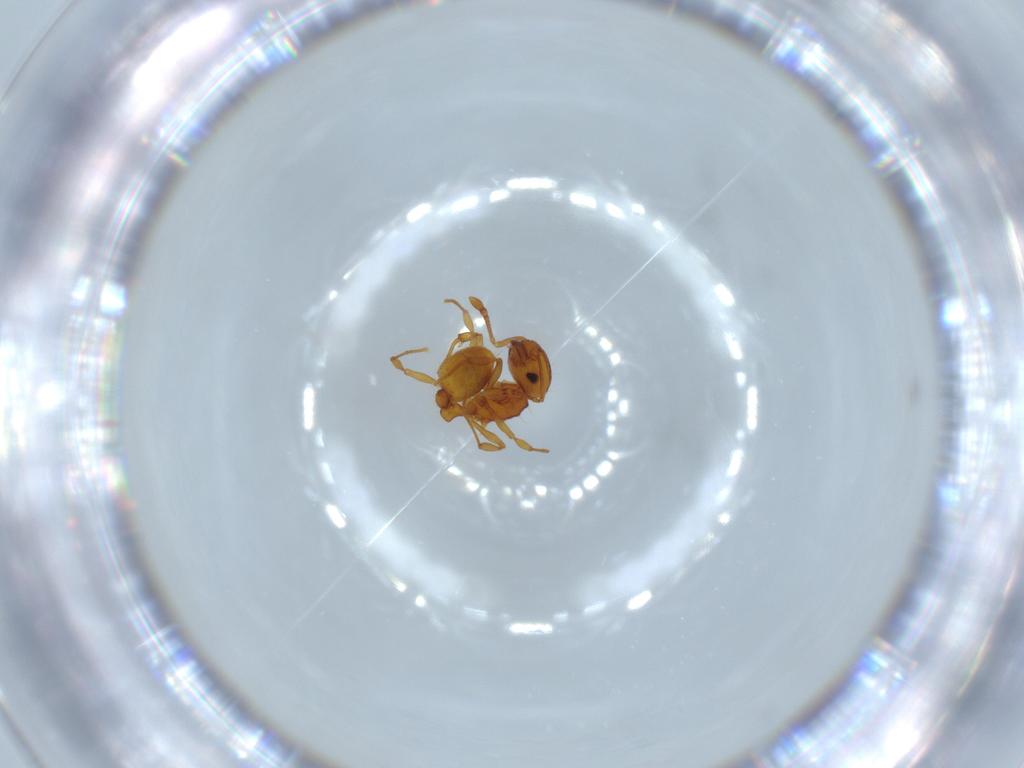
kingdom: Animalia
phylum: Arthropoda
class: Insecta
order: Hymenoptera
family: Formicidae
